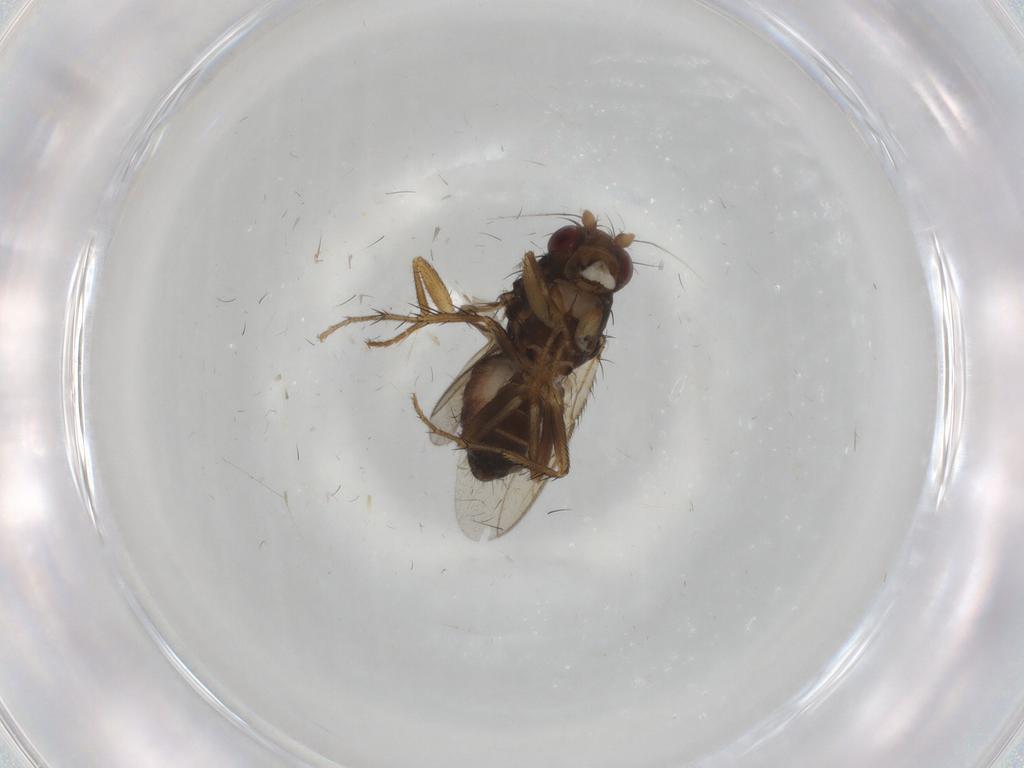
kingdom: Animalia
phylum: Arthropoda
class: Insecta
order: Diptera
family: Sphaeroceridae
